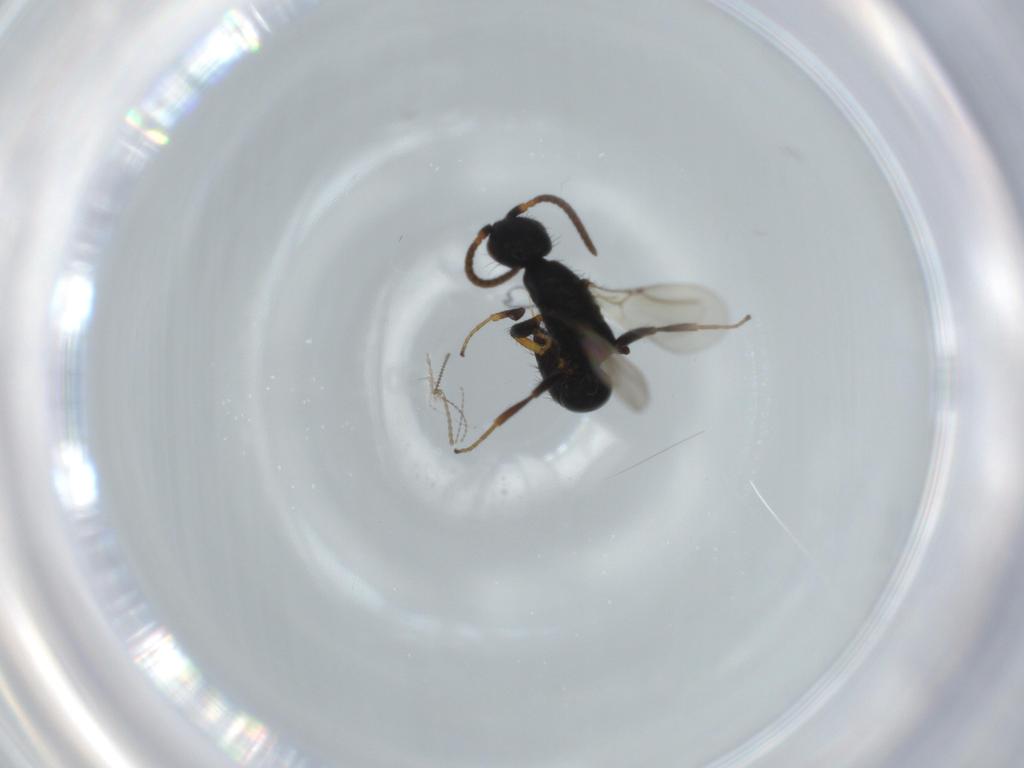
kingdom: Animalia
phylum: Arthropoda
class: Insecta
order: Hymenoptera
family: Bethylidae
